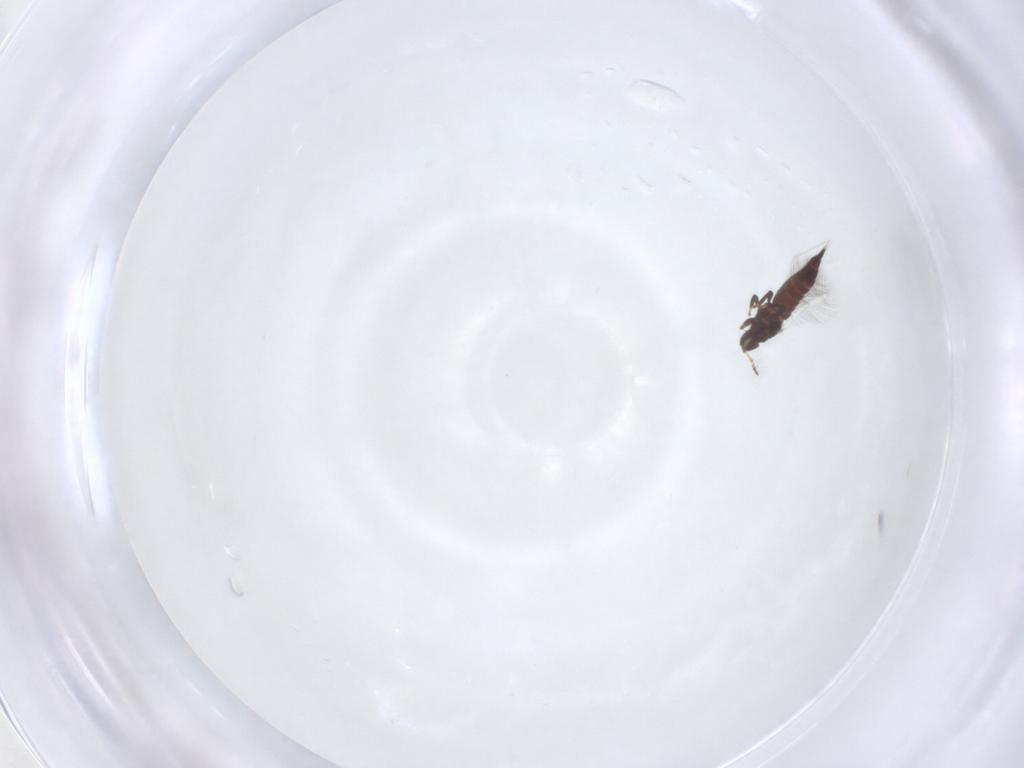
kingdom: Animalia
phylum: Arthropoda
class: Insecta
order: Thysanoptera
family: Phlaeothripidae
